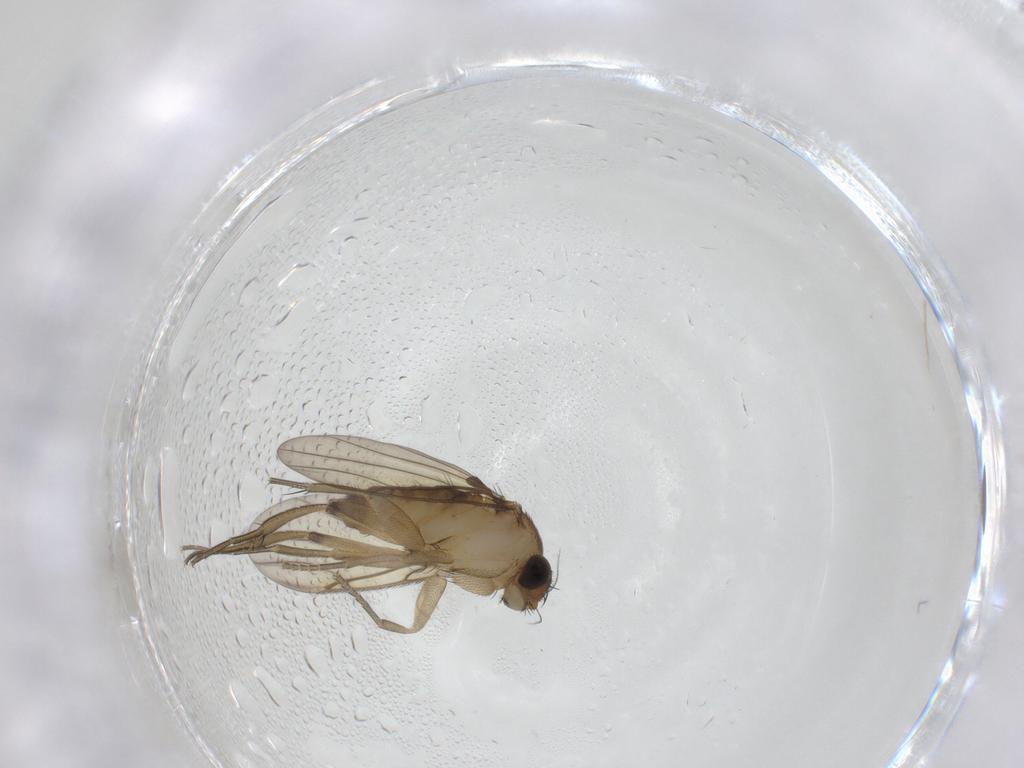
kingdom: Animalia
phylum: Arthropoda
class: Insecta
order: Diptera
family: Phoridae
